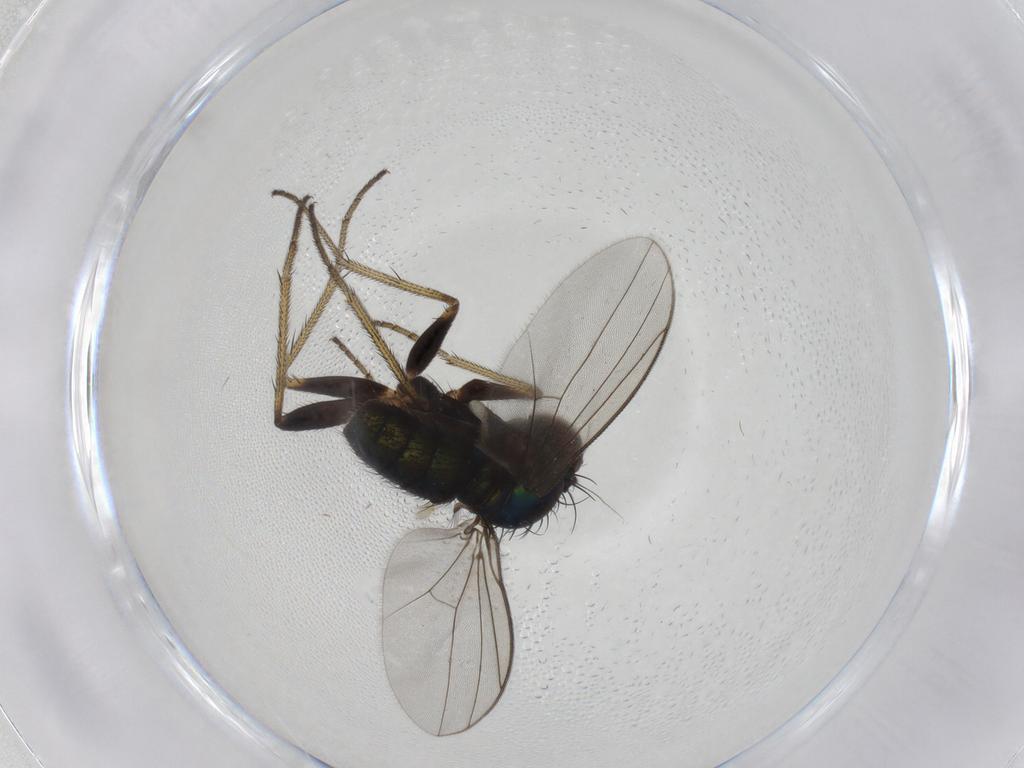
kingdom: Animalia
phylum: Arthropoda
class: Insecta
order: Diptera
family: Dolichopodidae
